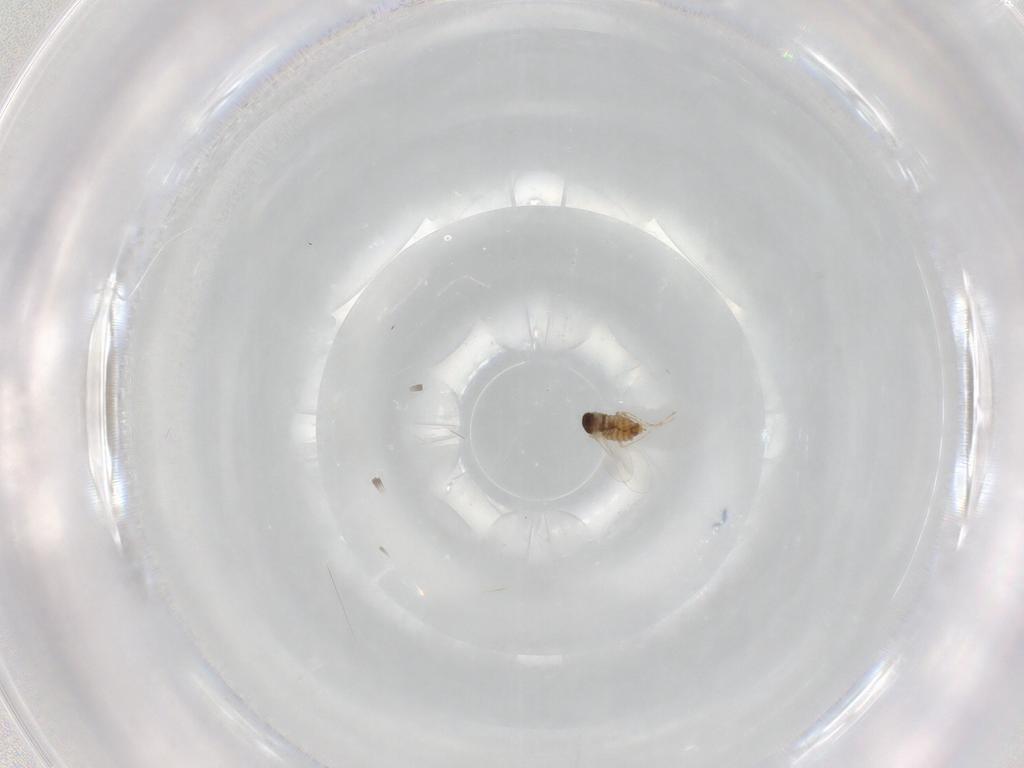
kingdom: Animalia
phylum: Arthropoda
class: Insecta
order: Diptera
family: Cecidomyiidae
